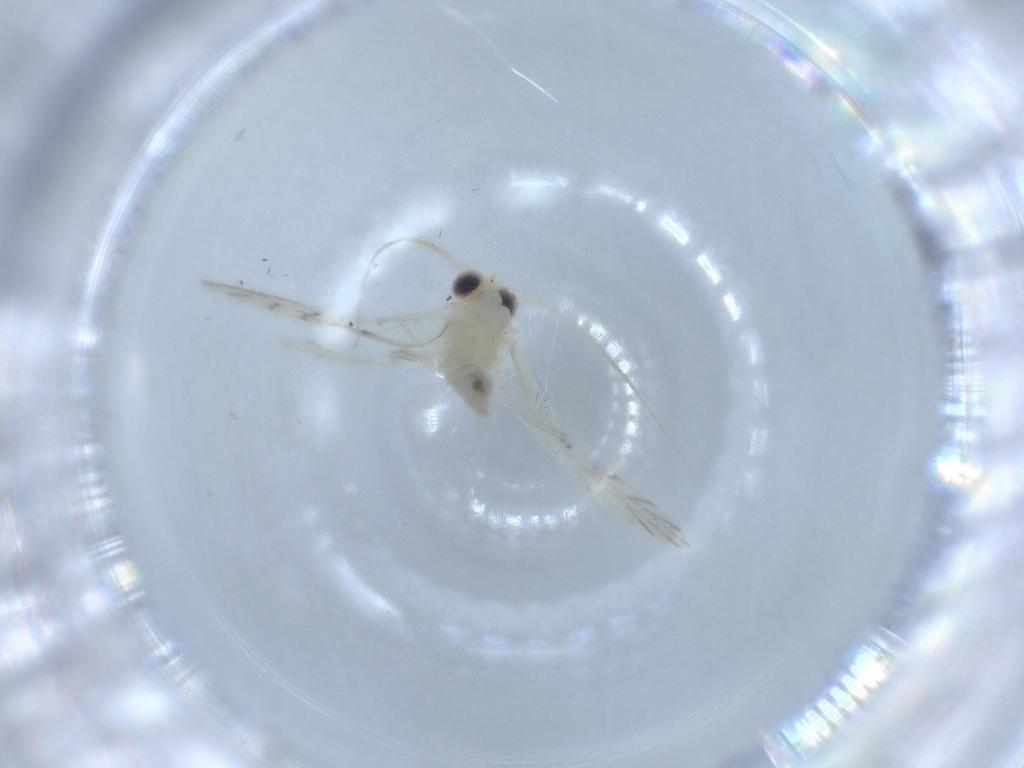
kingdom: Animalia
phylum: Arthropoda
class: Insecta
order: Psocodea
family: Caeciliusidae
